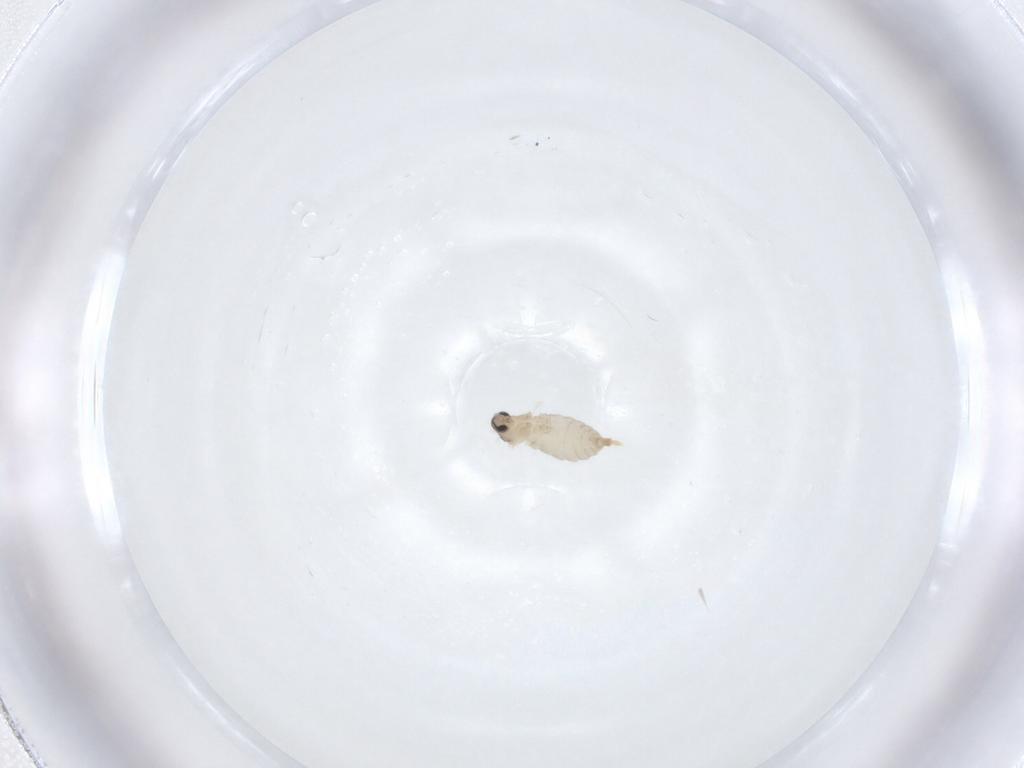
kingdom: Animalia
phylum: Arthropoda
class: Insecta
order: Diptera
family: Chironomidae
